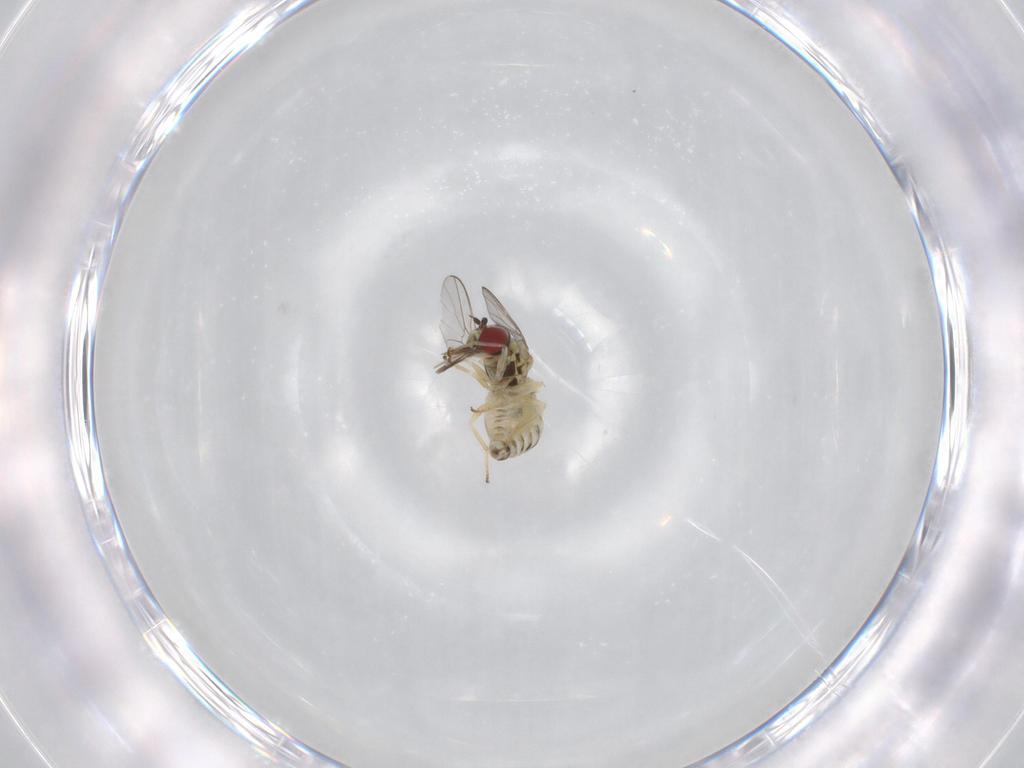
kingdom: Animalia
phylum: Arthropoda
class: Insecta
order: Diptera
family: Bombyliidae
